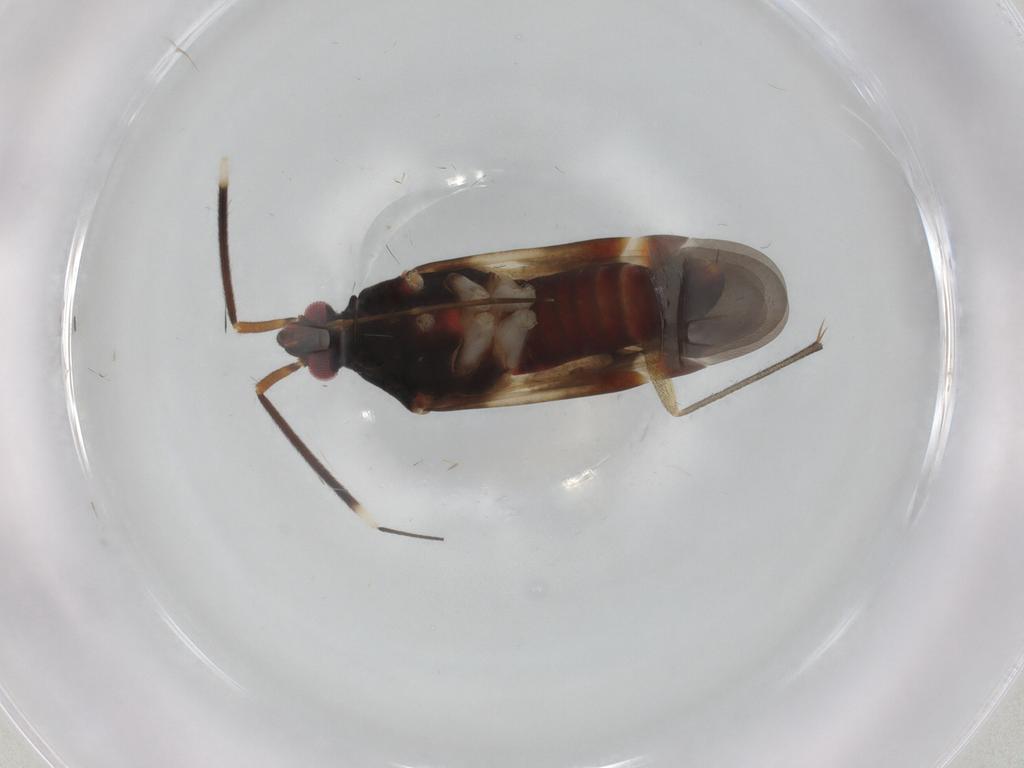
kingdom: Animalia
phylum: Arthropoda
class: Insecta
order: Hemiptera
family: Miridae
